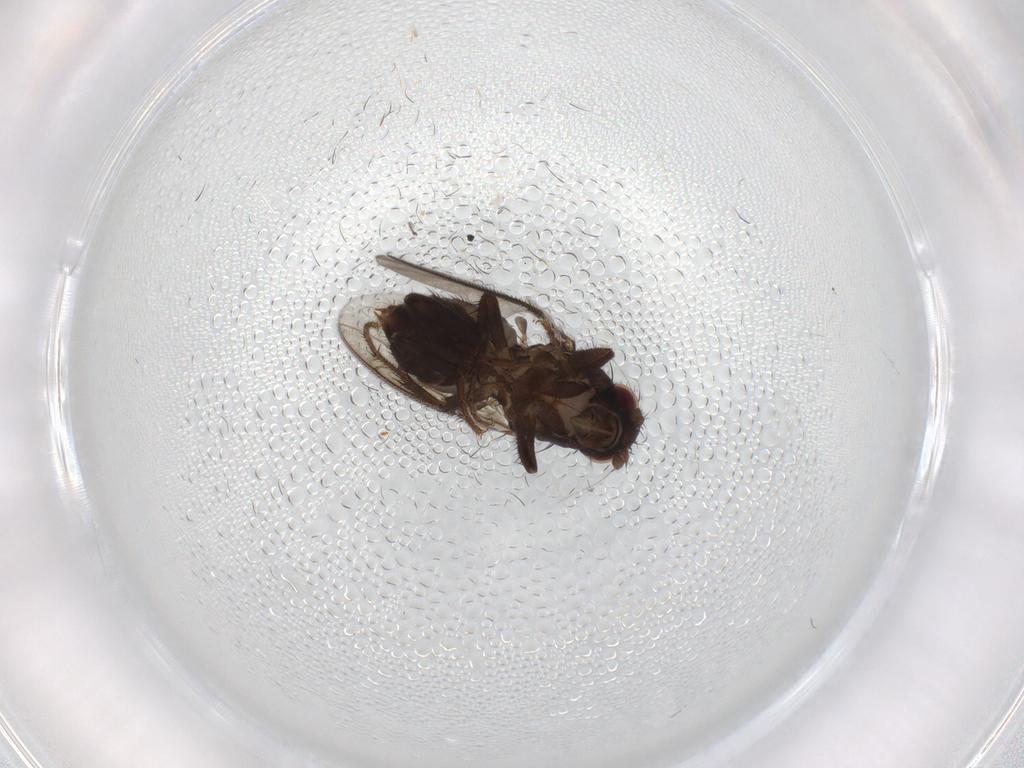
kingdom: Animalia
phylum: Arthropoda
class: Insecta
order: Diptera
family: Sphaeroceridae
